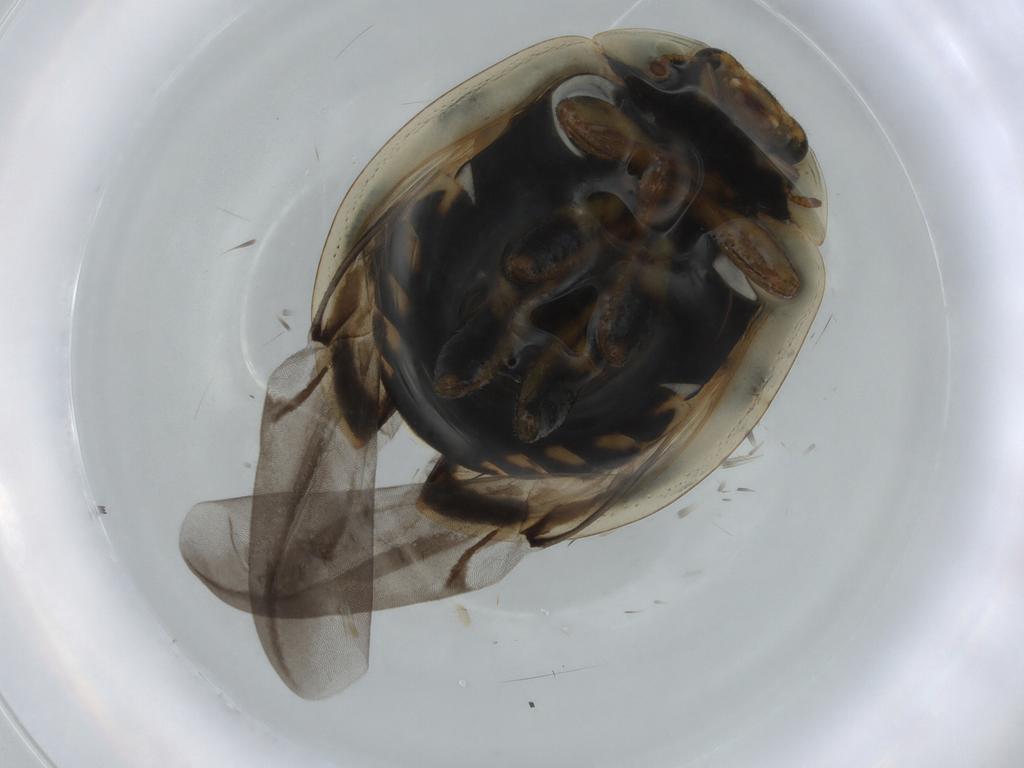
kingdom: Animalia
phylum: Arthropoda
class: Insecta
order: Coleoptera
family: Coccinellidae
